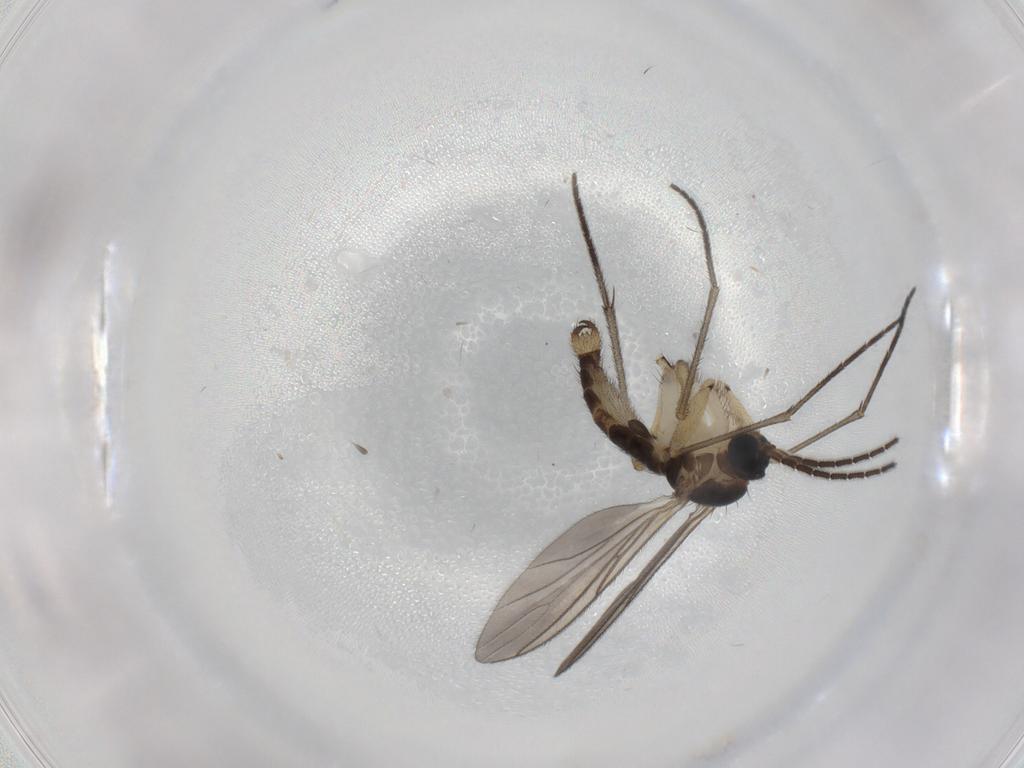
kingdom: Animalia
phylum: Arthropoda
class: Insecta
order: Diptera
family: Sciaridae
